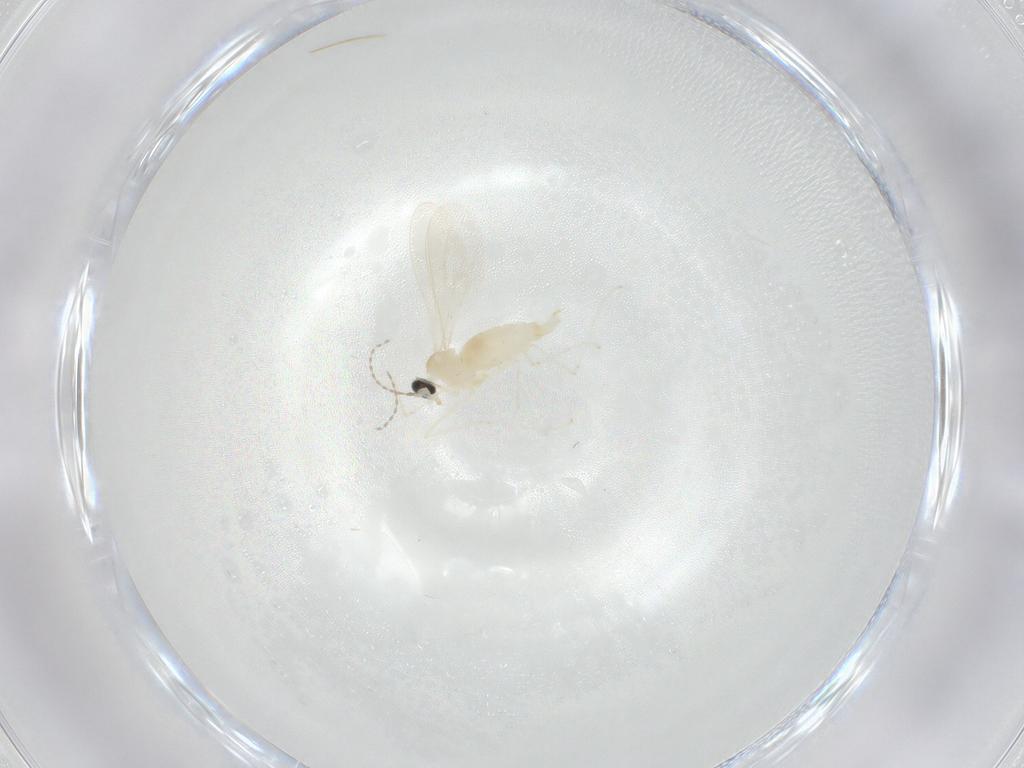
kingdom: Animalia
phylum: Arthropoda
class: Insecta
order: Diptera
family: Cecidomyiidae
